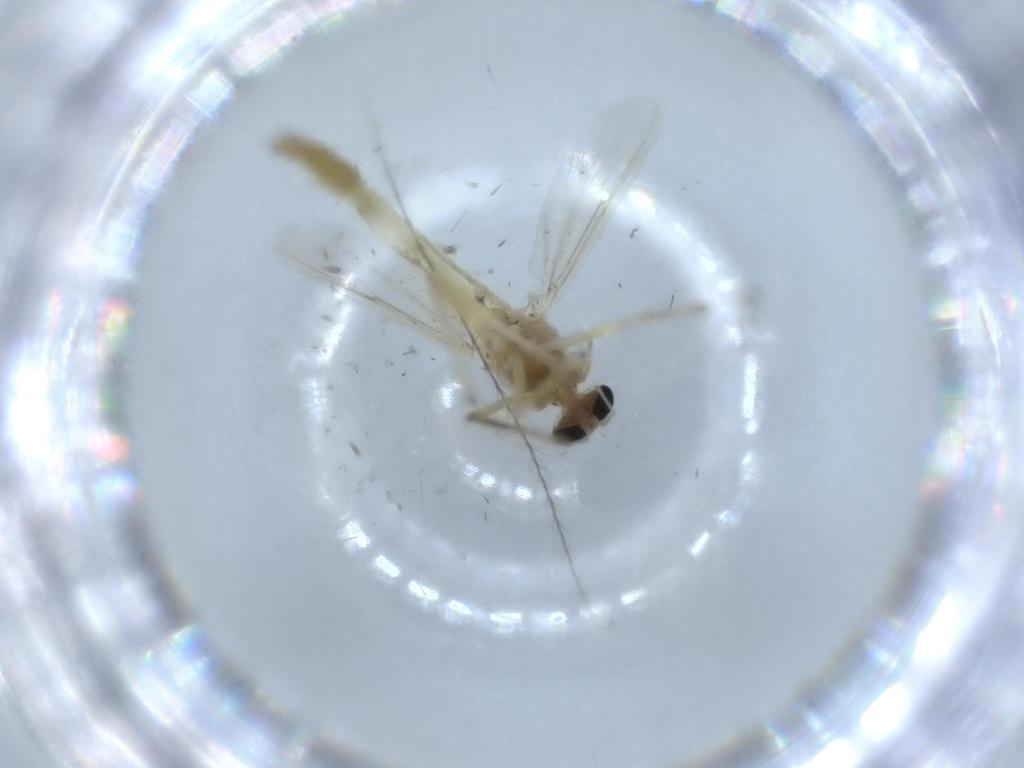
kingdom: Animalia
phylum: Arthropoda
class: Insecta
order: Diptera
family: Chironomidae
